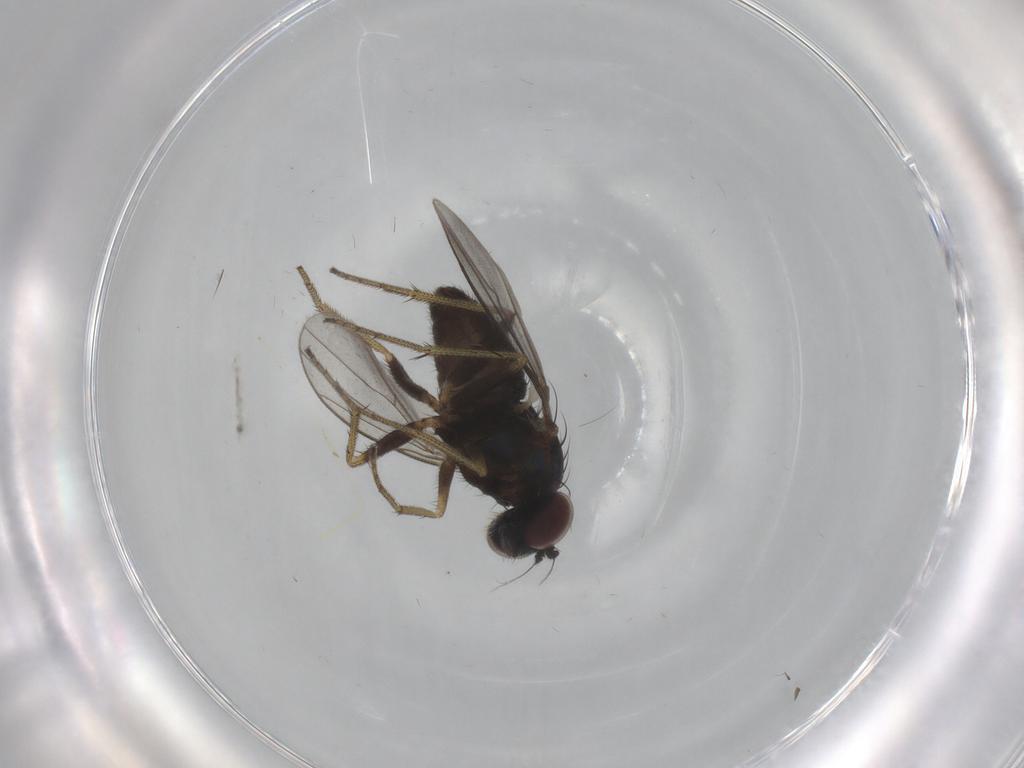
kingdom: Animalia
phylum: Arthropoda
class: Insecta
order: Diptera
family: Cecidomyiidae
